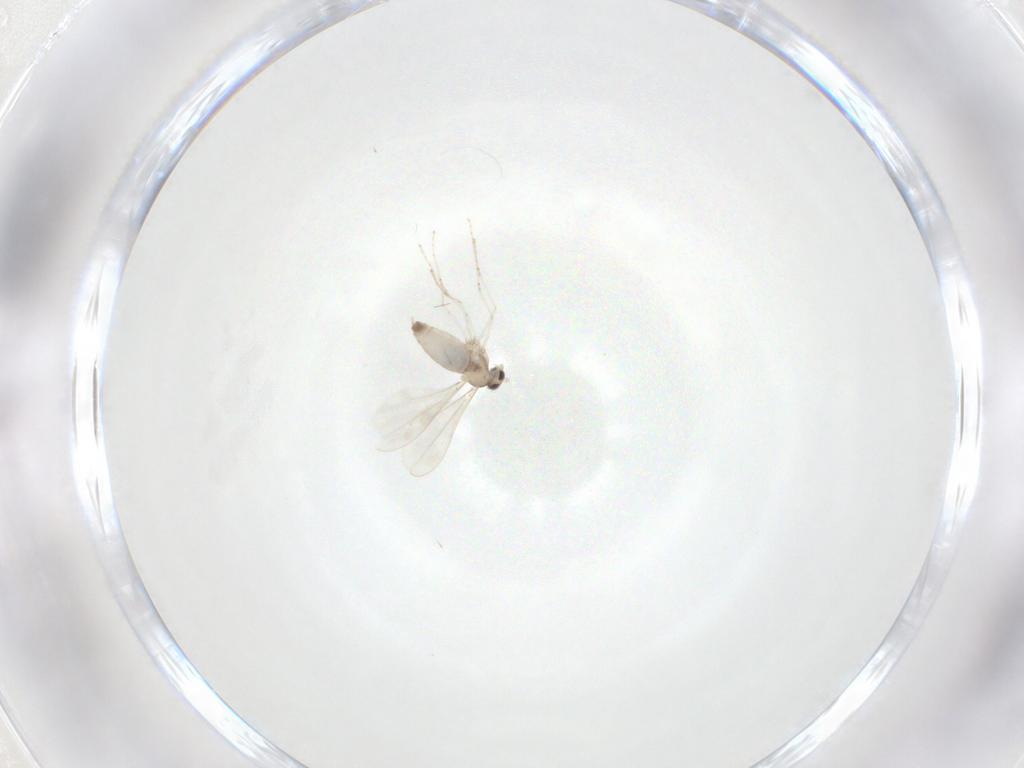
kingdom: Animalia
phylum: Arthropoda
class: Insecta
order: Diptera
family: Cecidomyiidae
